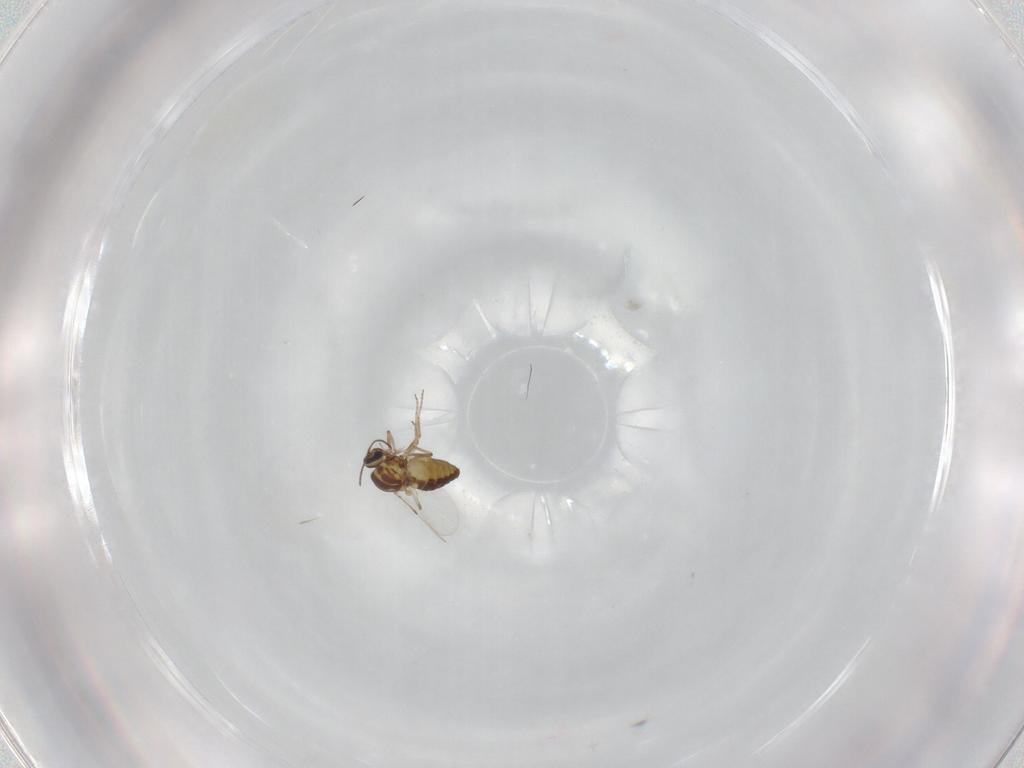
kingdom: Animalia
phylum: Arthropoda
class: Insecta
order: Diptera
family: Ceratopogonidae
